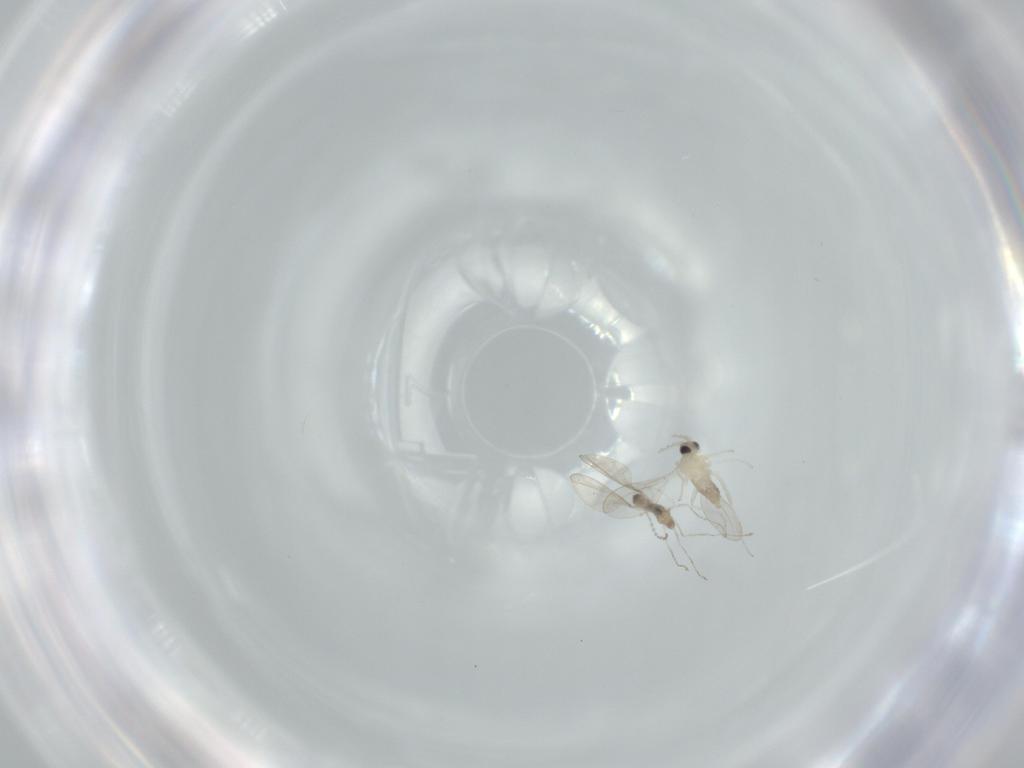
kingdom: Animalia
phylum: Arthropoda
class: Insecta
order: Diptera
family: Cecidomyiidae
